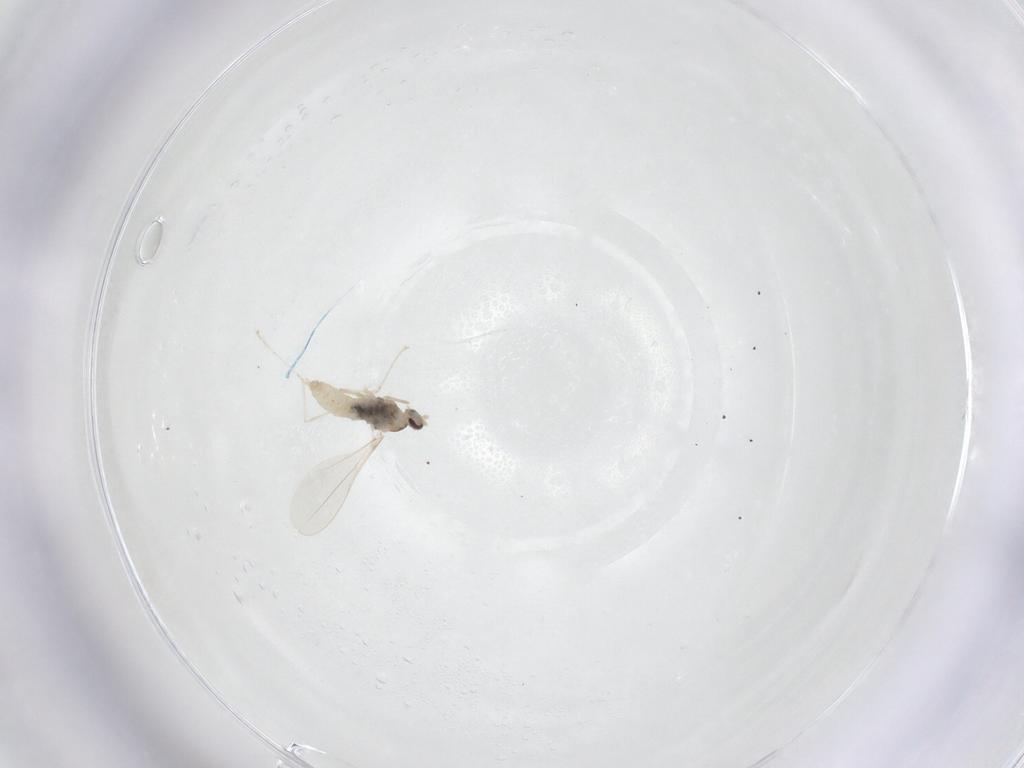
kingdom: Animalia
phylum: Arthropoda
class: Insecta
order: Diptera
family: Cecidomyiidae
